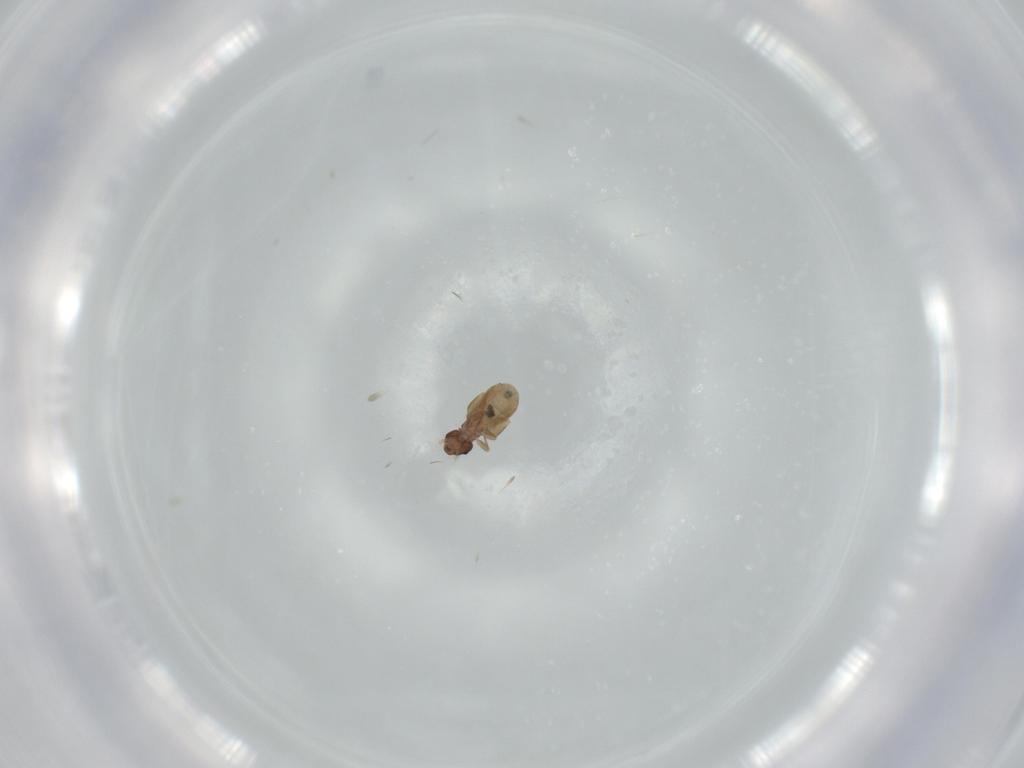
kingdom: Animalia
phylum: Arthropoda
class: Insecta
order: Psocodea
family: Liposcelididae
